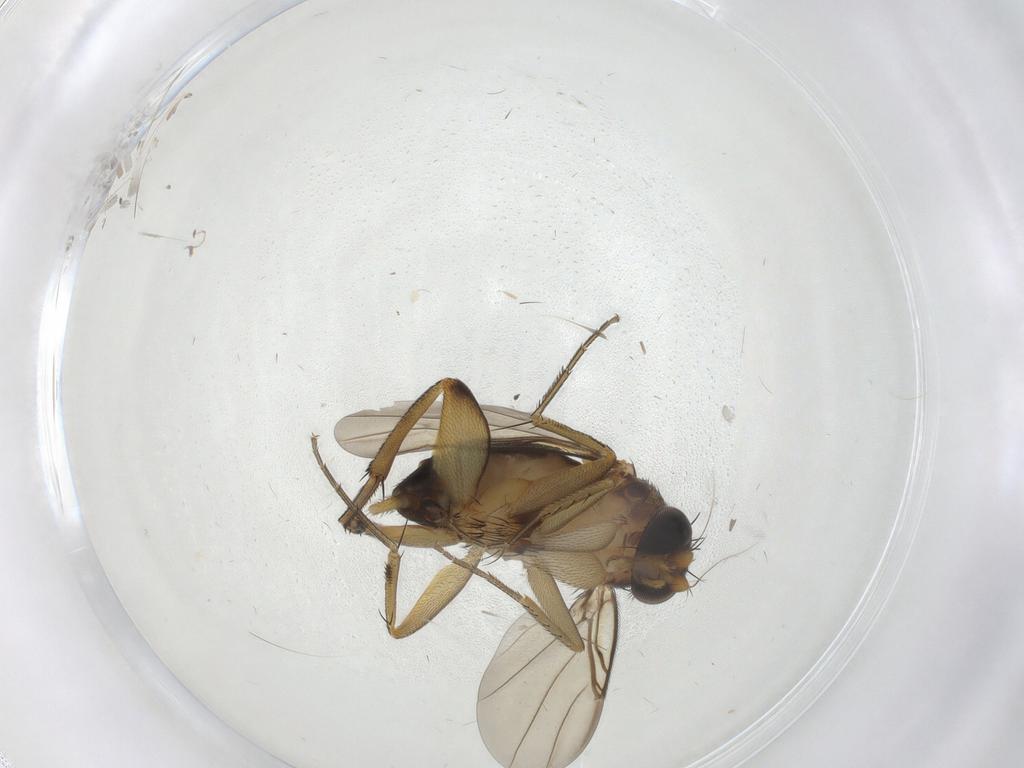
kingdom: Animalia
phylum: Arthropoda
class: Insecta
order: Diptera
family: Phoridae
